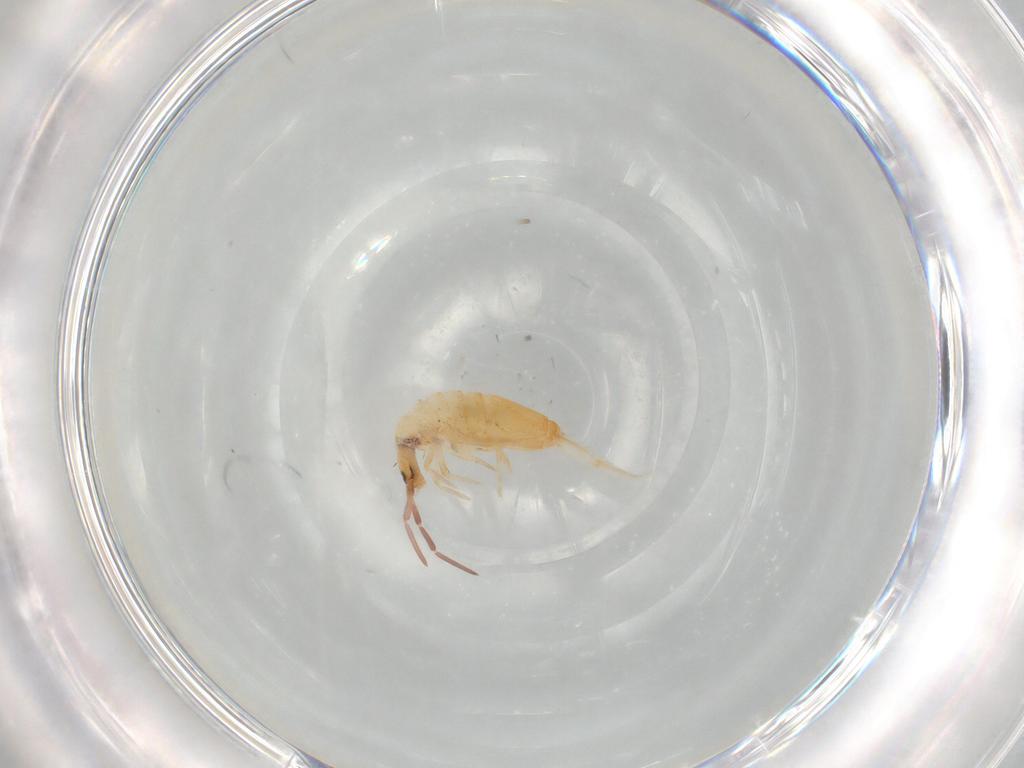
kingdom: Animalia
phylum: Arthropoda
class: Collembola
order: Entomobryomorpha
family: Entomobryidae
